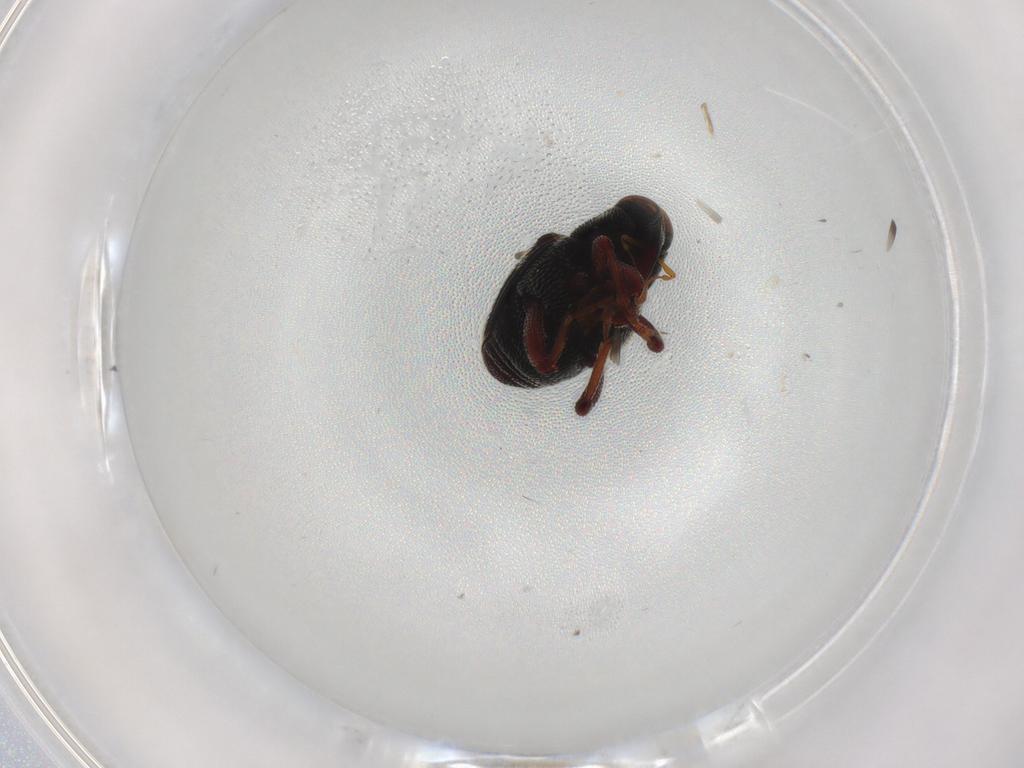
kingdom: Animalia
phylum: Arthropoda
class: Insecta
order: Coleoptera
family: Curculionidae
